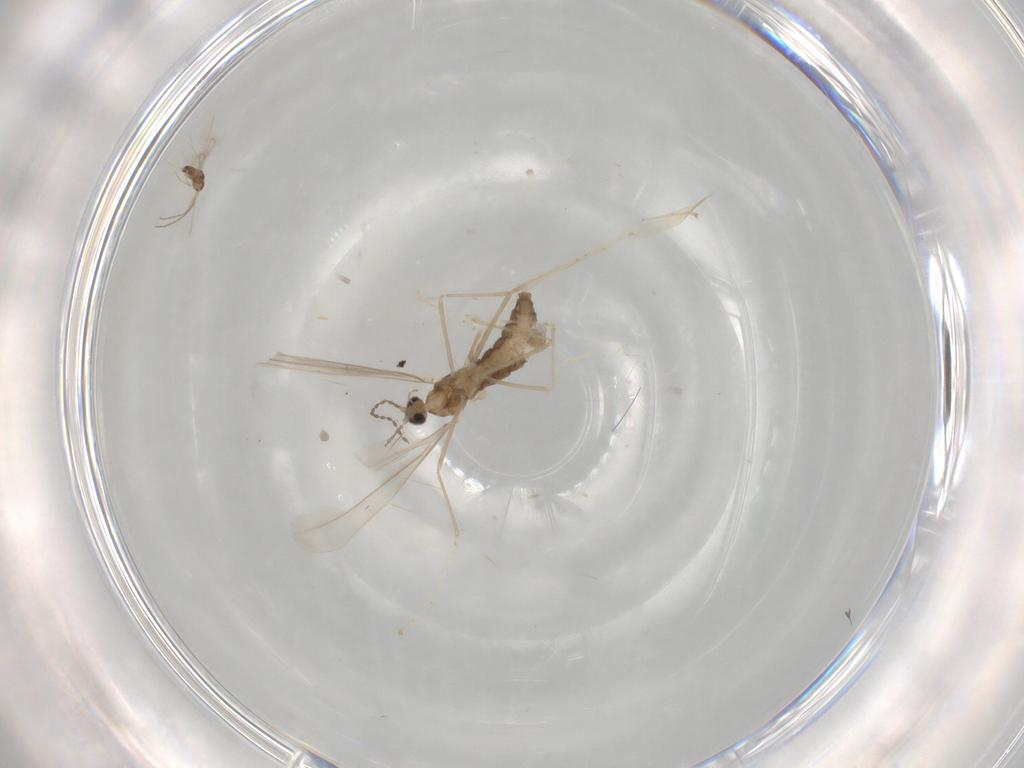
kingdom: Animalia
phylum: Arthropoda
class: Insecta
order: Diptera
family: Cecidomyiidae
